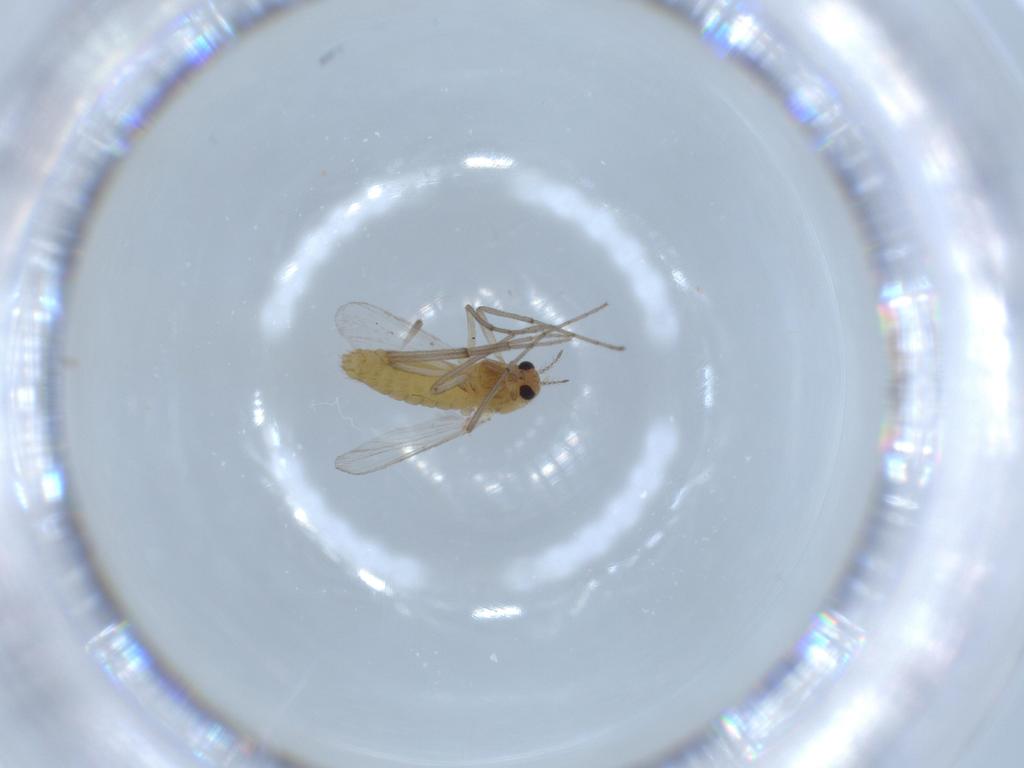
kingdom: Animalia
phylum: Arthropoda
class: Insecta
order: Diptera
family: Chironomidae
